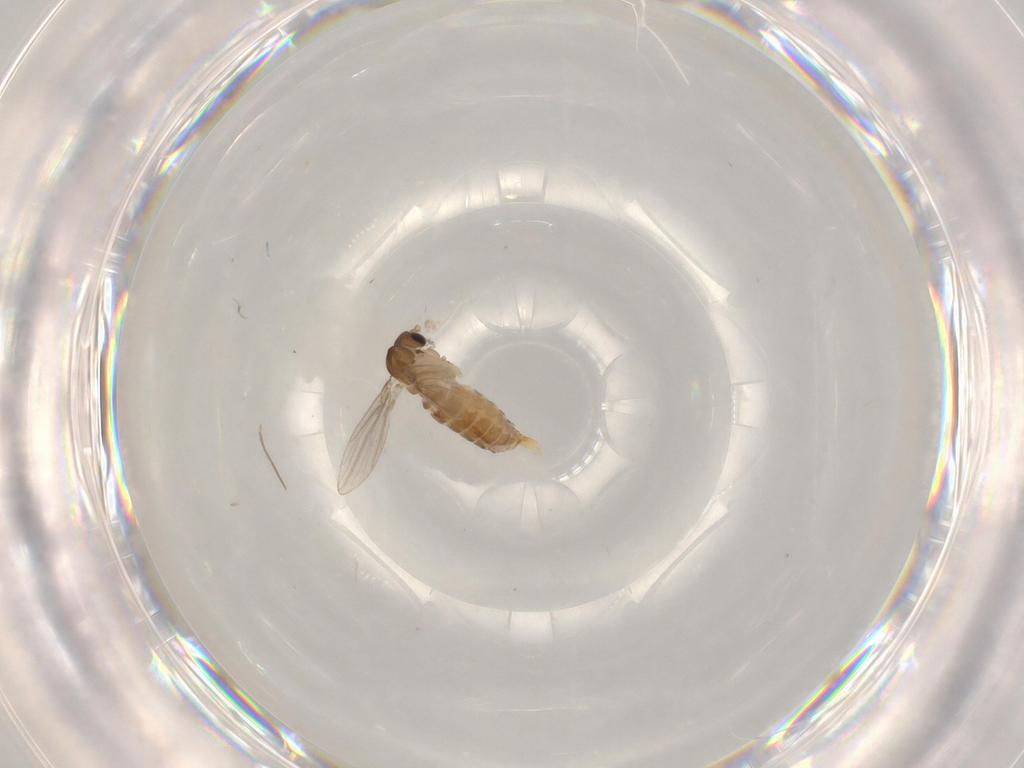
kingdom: Animalia
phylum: Arthropoda
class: Insecta
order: Diptera
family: Psychodidae
